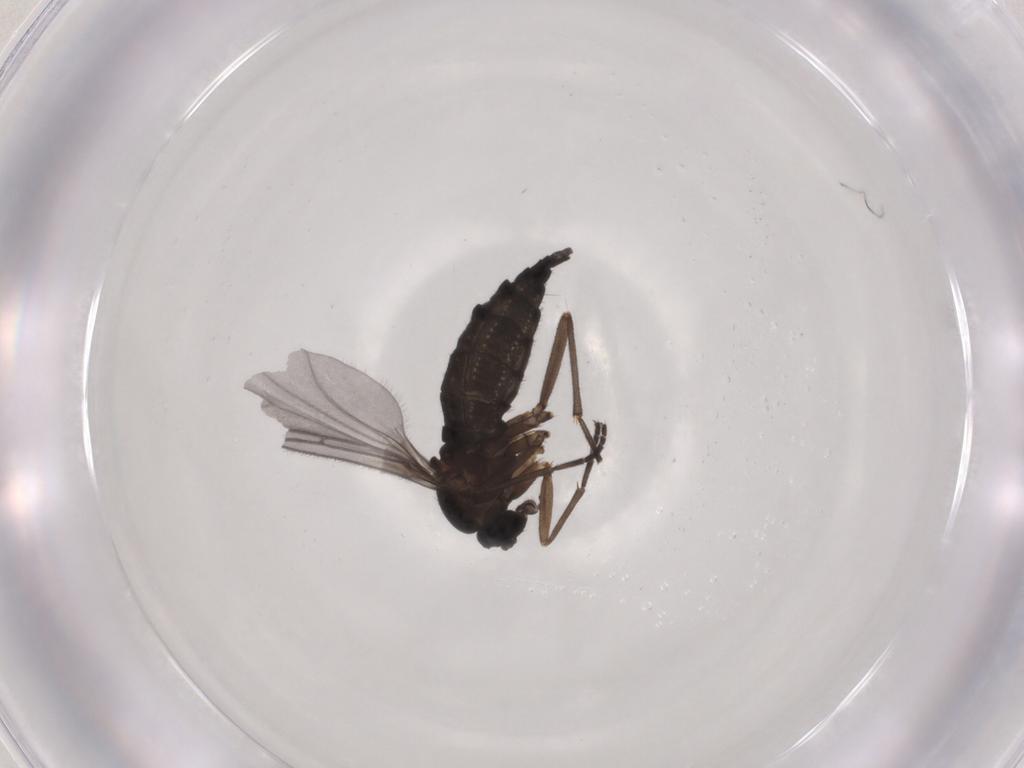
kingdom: Animalia
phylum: Arthropoda
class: Insecta
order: Diptera
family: Sciaridae
